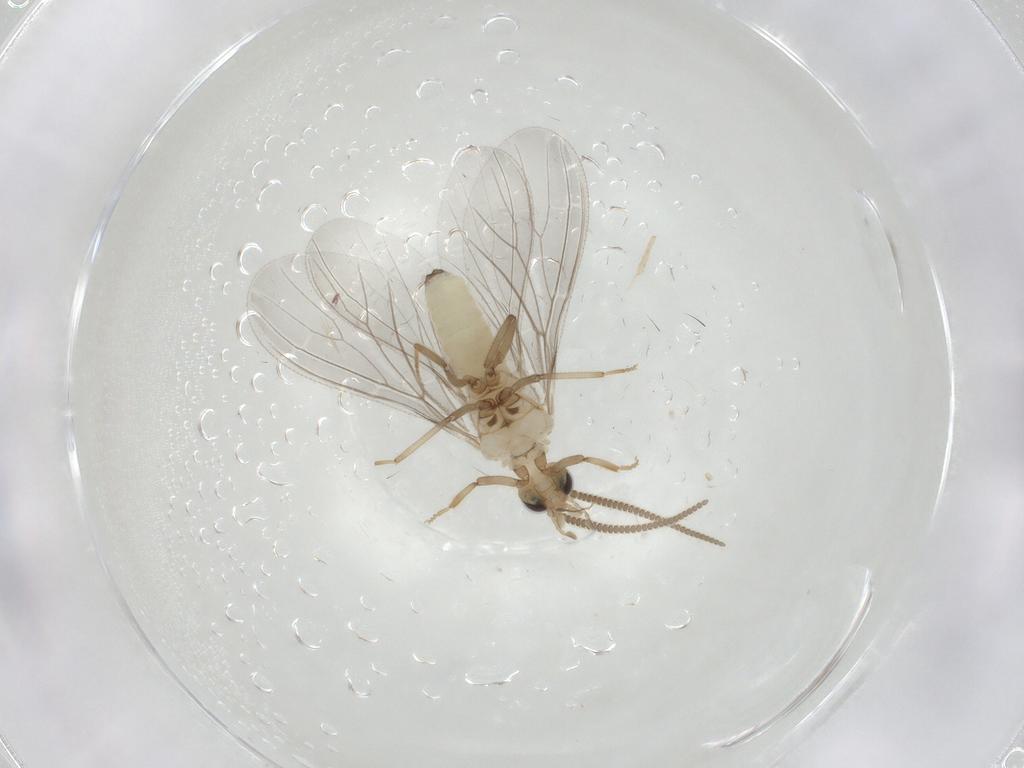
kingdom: Animalia
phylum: Arthropoda
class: Insecta
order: Neuroptera
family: Coniopterygidae
